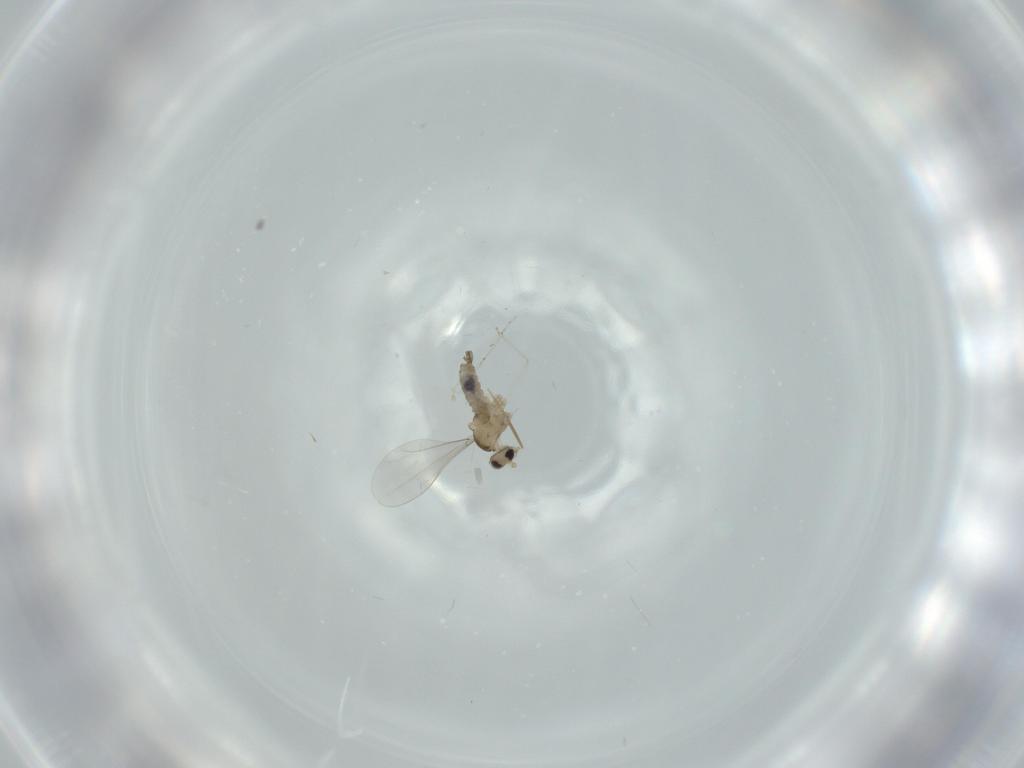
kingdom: Animalia
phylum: Arthropoda
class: Insecta
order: Diptera
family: Cecidomyiidae
